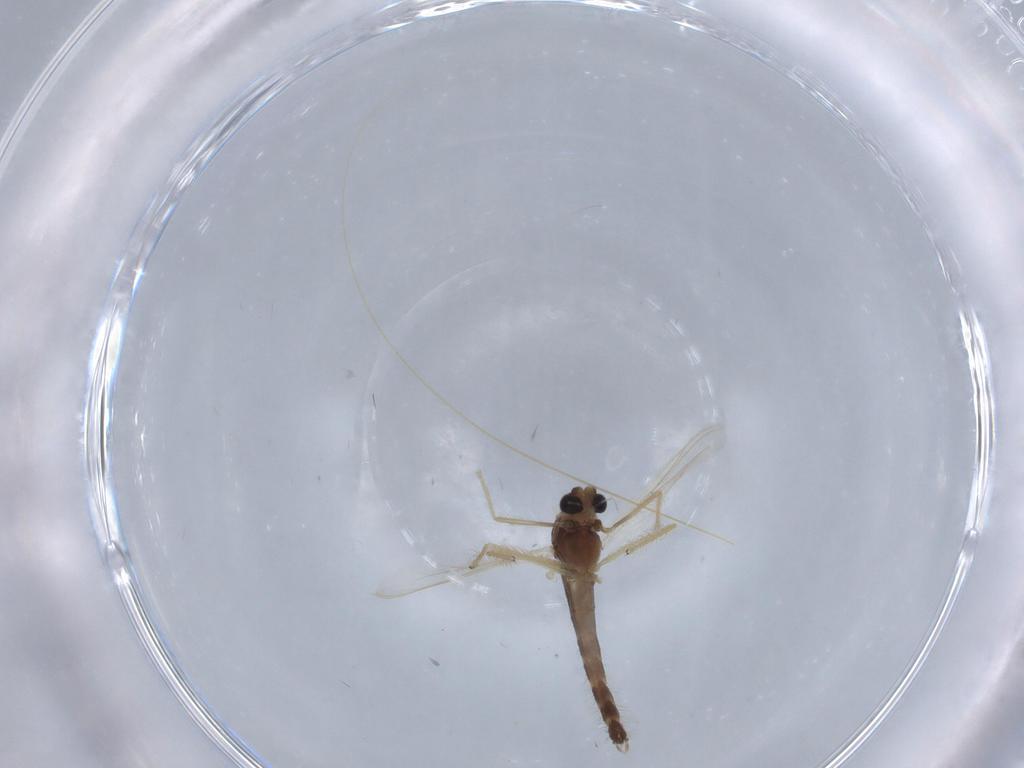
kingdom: Animalia
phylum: Arthropoda
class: Insecta
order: Diptera
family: Chironomidae
